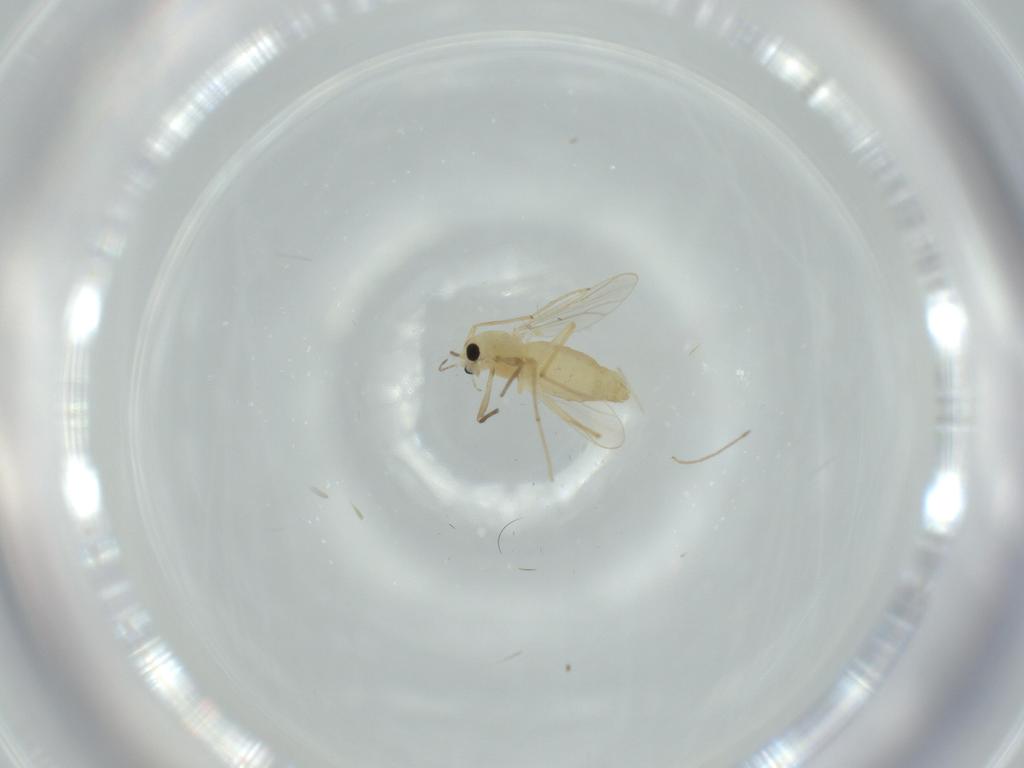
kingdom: Animalia
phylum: Arthropoda
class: Insecta
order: Diptera
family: Chironomidae
